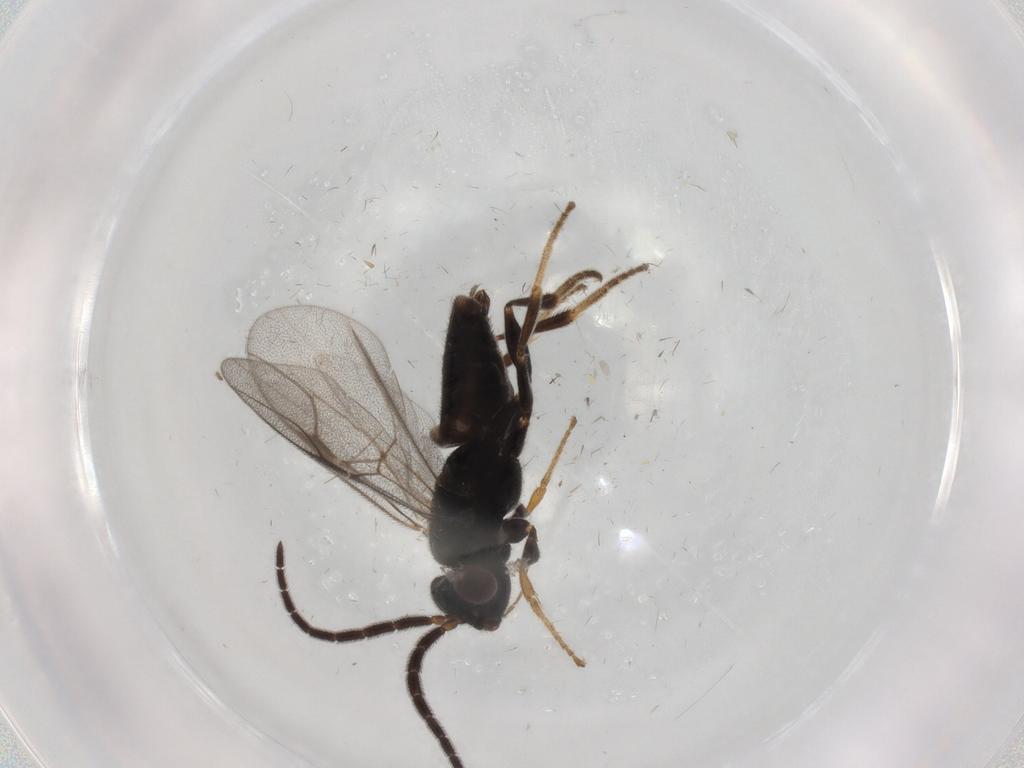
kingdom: Animalia
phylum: Arthropoda
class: Insecta
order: Hymenoptera
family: Dryinidae
